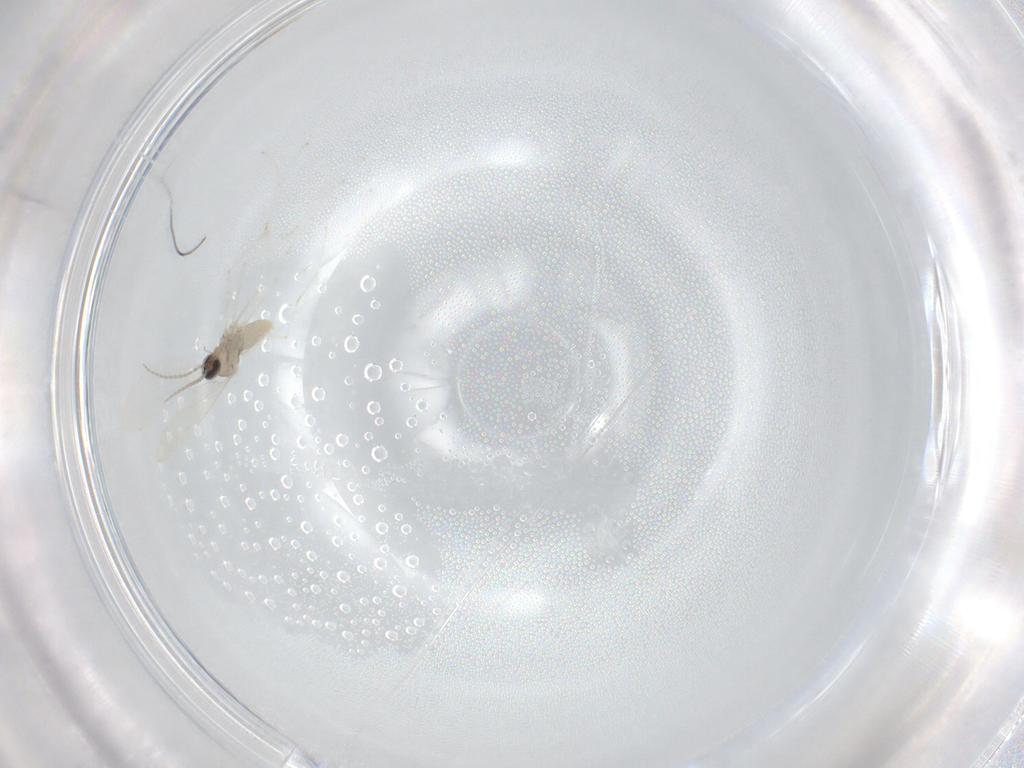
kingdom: Animalia
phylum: Arthropoda
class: Insecta
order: Diptera
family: Cecidomyiidae
